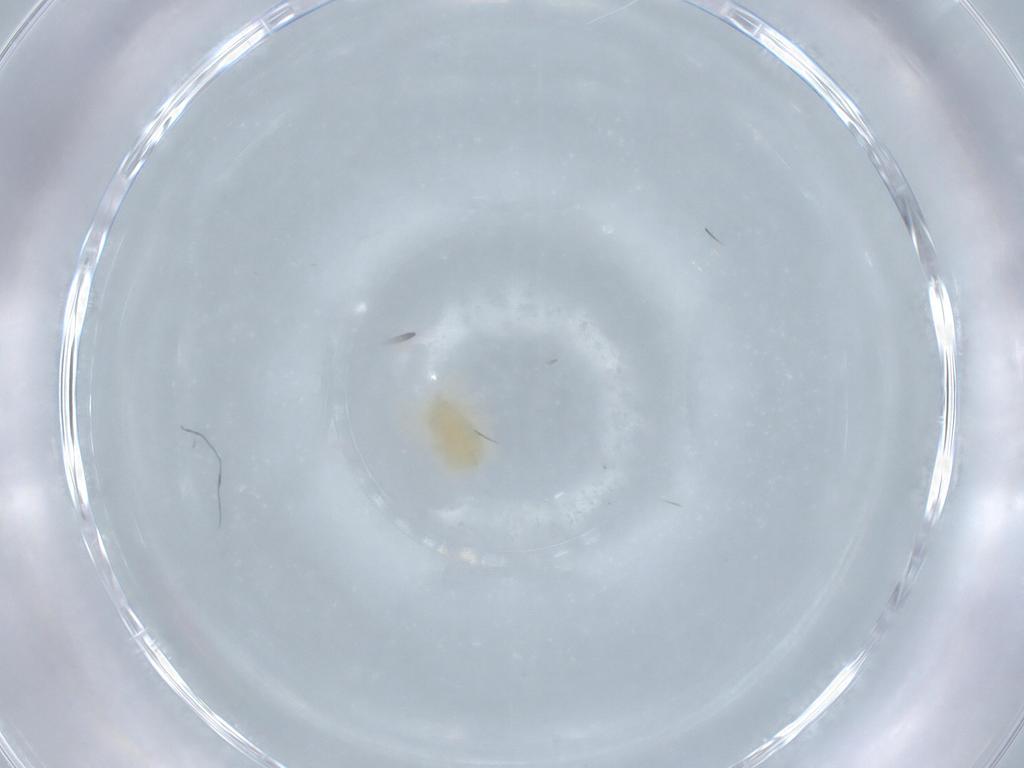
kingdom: Animalia
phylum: Arthropoda
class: Arachnida
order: Trombidiformes
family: Anystidae
